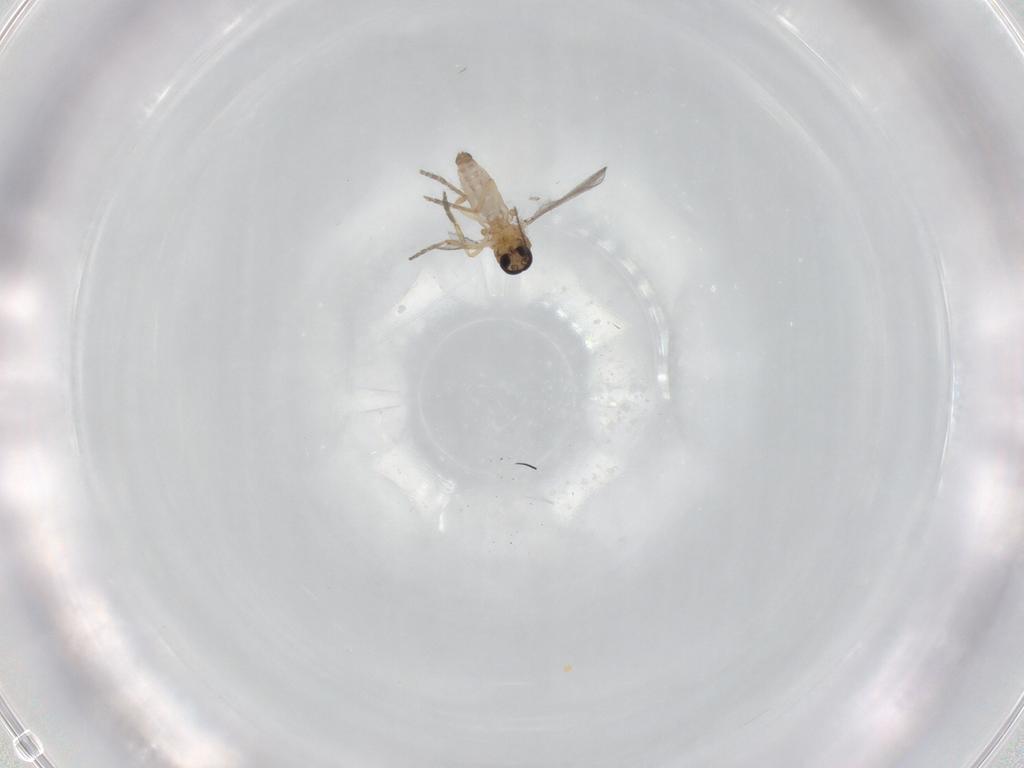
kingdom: Animalia
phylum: Arthropoda
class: Insecta
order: Diptera
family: Ceratopogonidae
